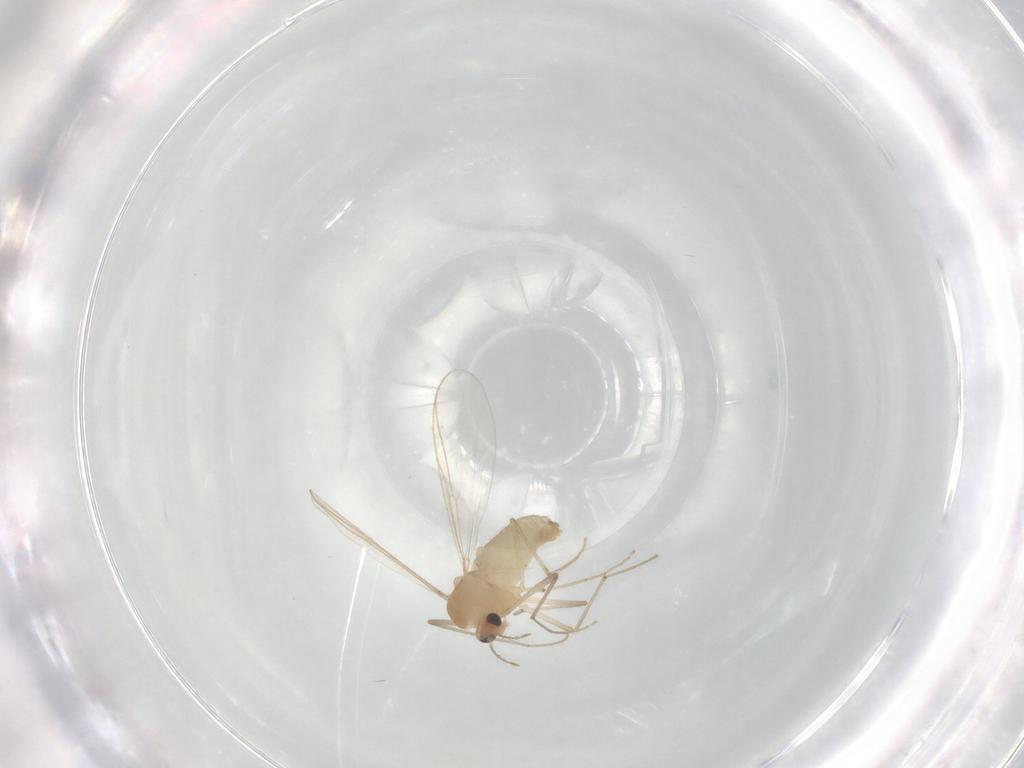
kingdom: Animalia
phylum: Arthropoda
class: Insecta
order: Diptera
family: Chironomidae
